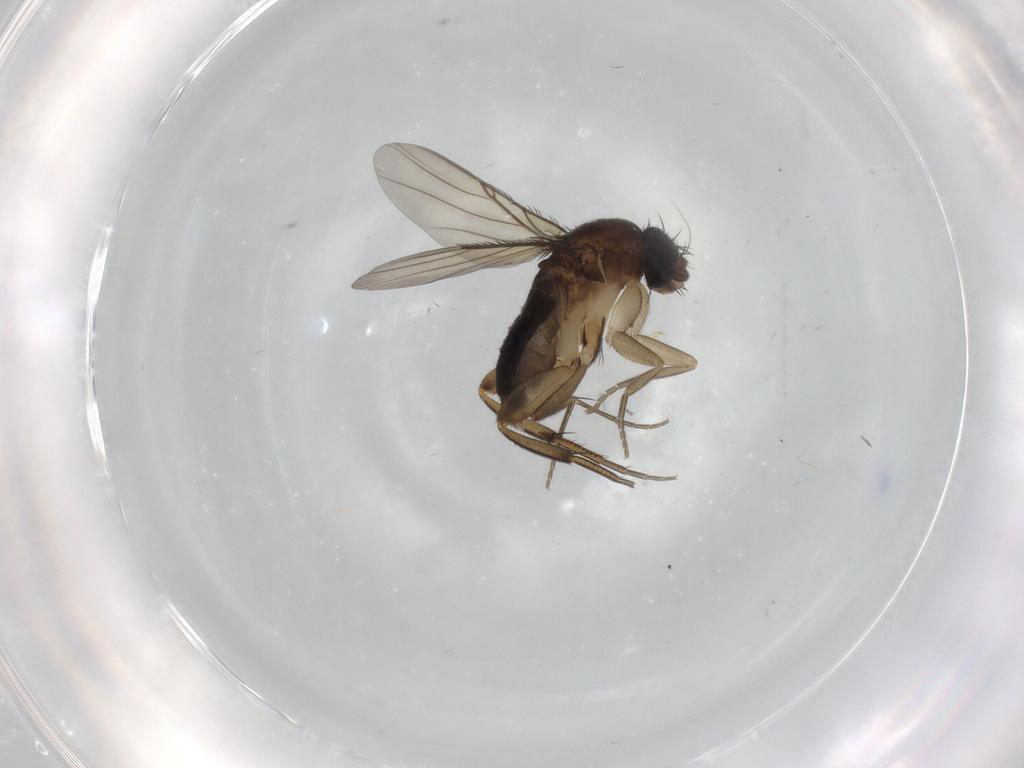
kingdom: Animalia
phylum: Arthropoda
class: Insecta
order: Diptera
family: Phoridae
